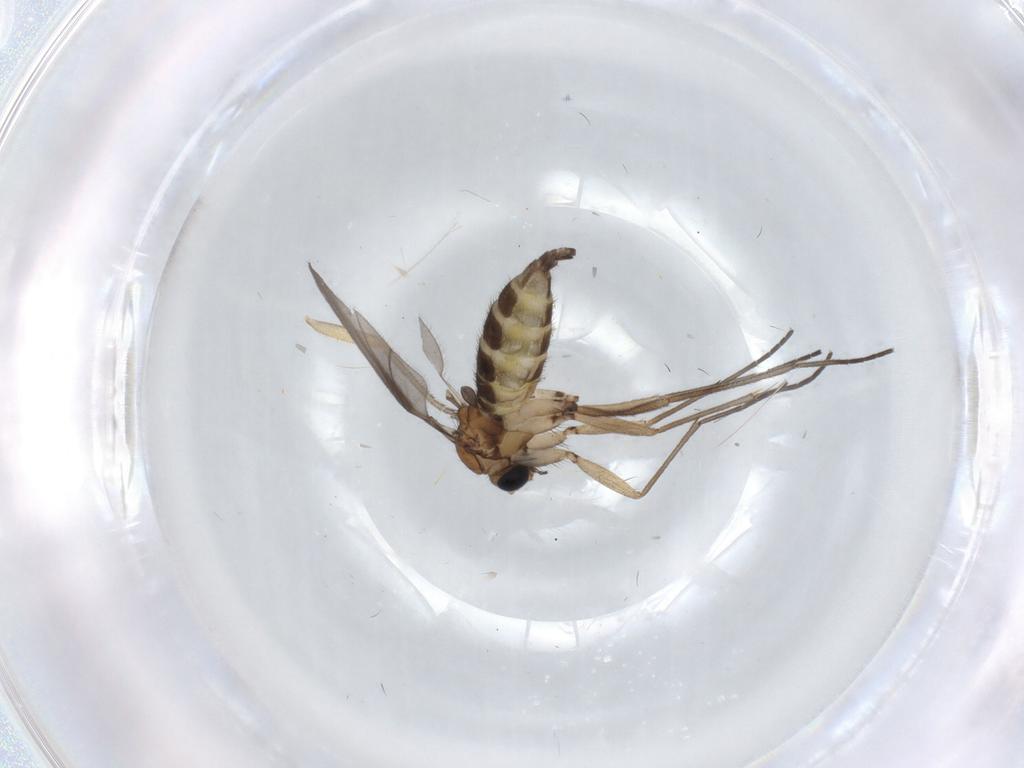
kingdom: Animalia
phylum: Arthropoda
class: Insecta
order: Diptera
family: Sciaridae
